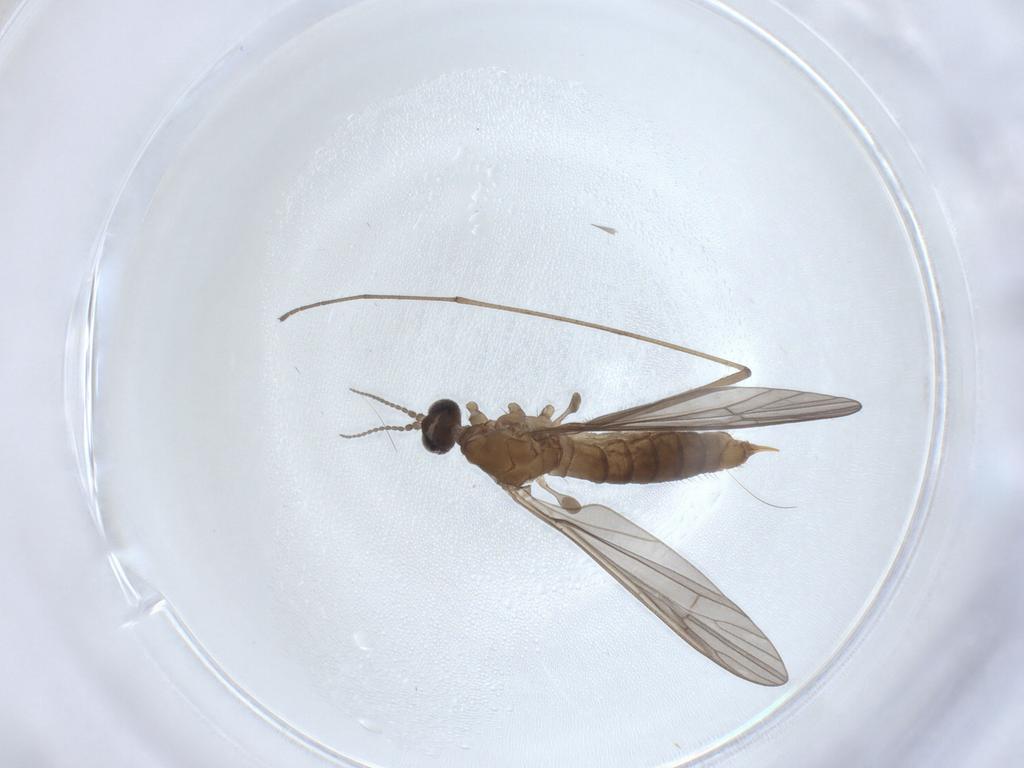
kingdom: Animalia
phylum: Arthropoda
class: Insecta
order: Diptera
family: Limoniidae
